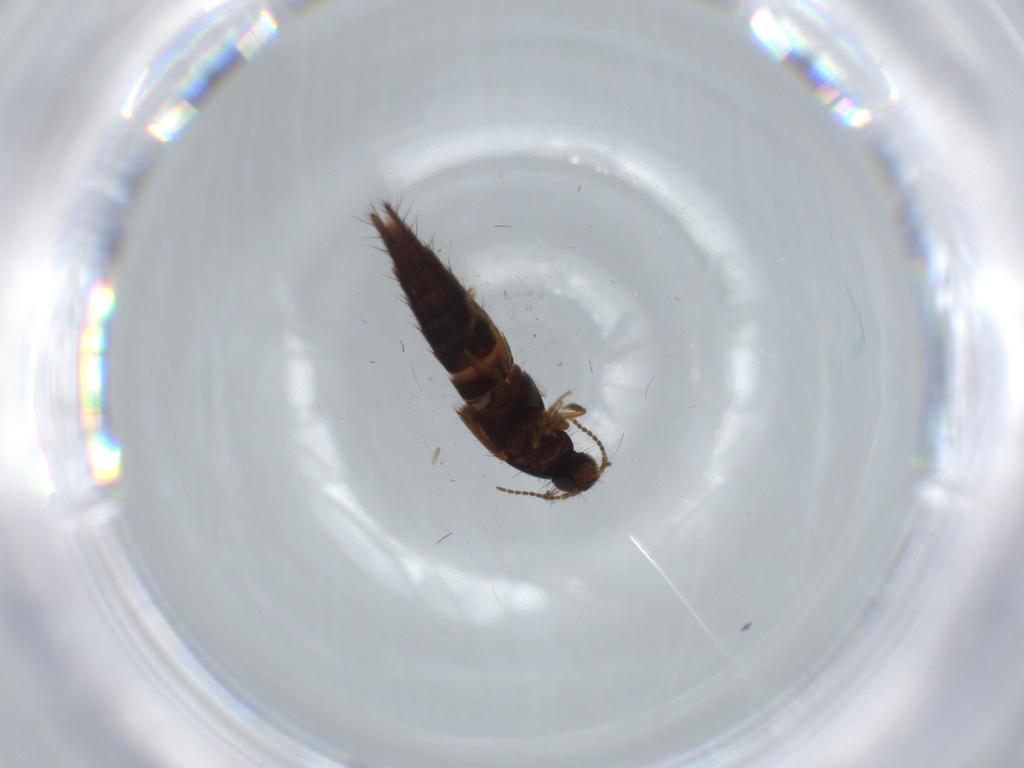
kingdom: Animalia
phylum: Arthropoda
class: Insecta
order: Coleoptera
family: Staphylinidae
